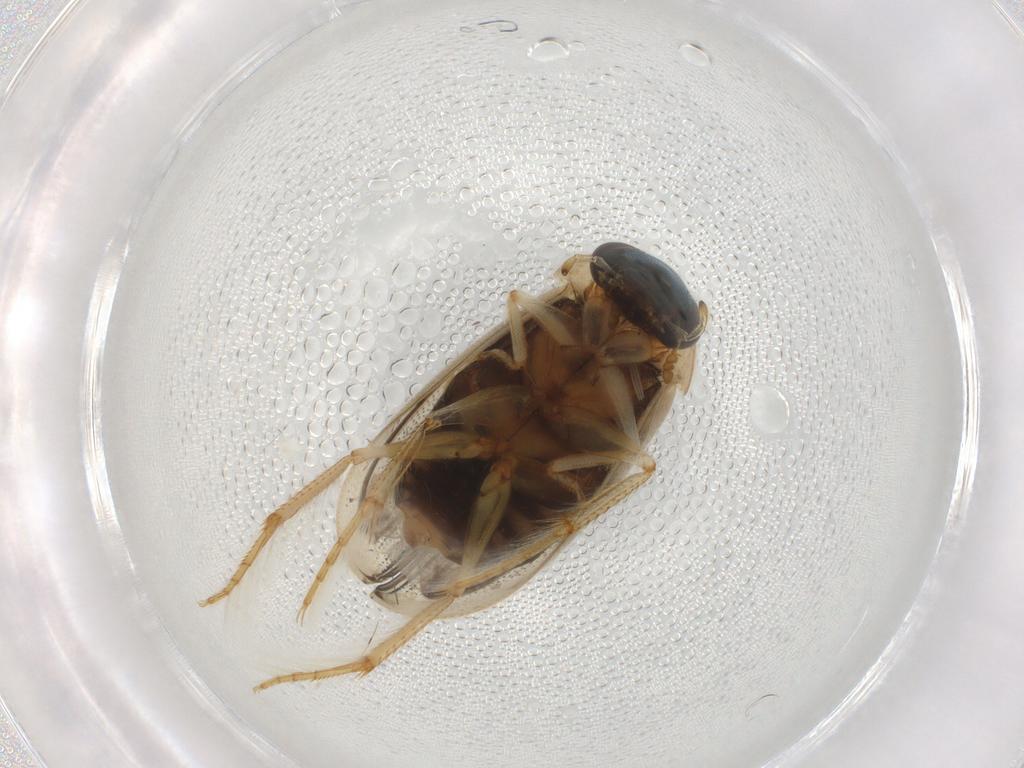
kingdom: Animalia
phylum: Arthropoda
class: Insecta
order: Coleoptera
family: Hydrophilidae
